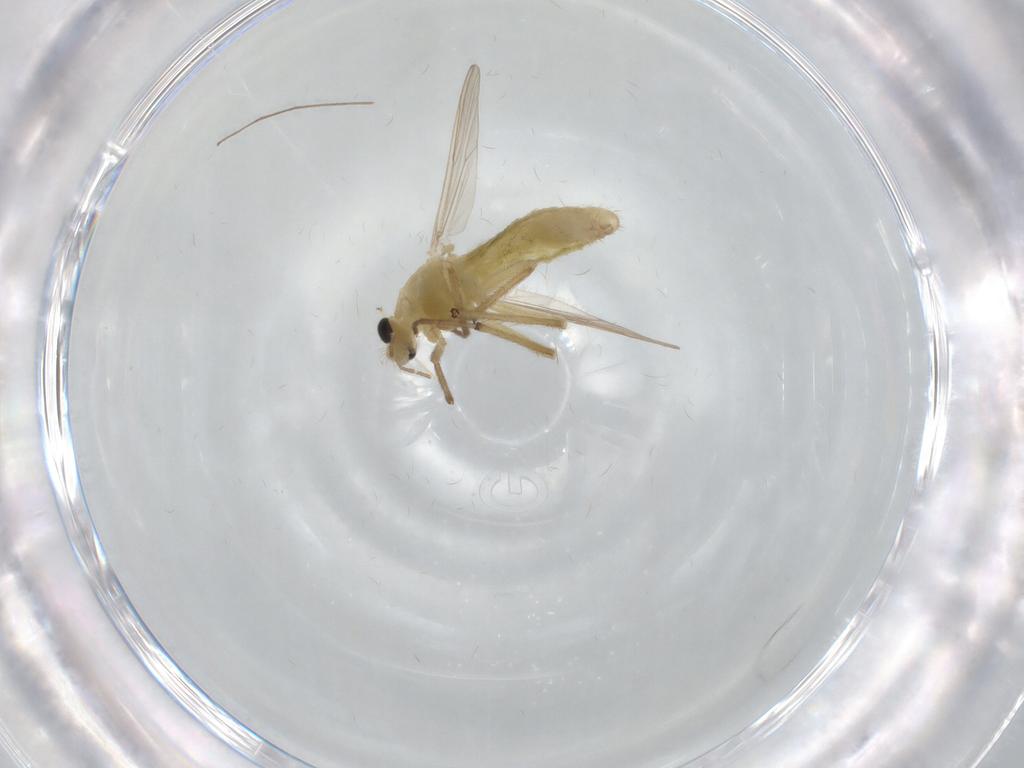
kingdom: Animalia
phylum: Arthropoda
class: Insecta
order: Diptera
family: Chironomidae
